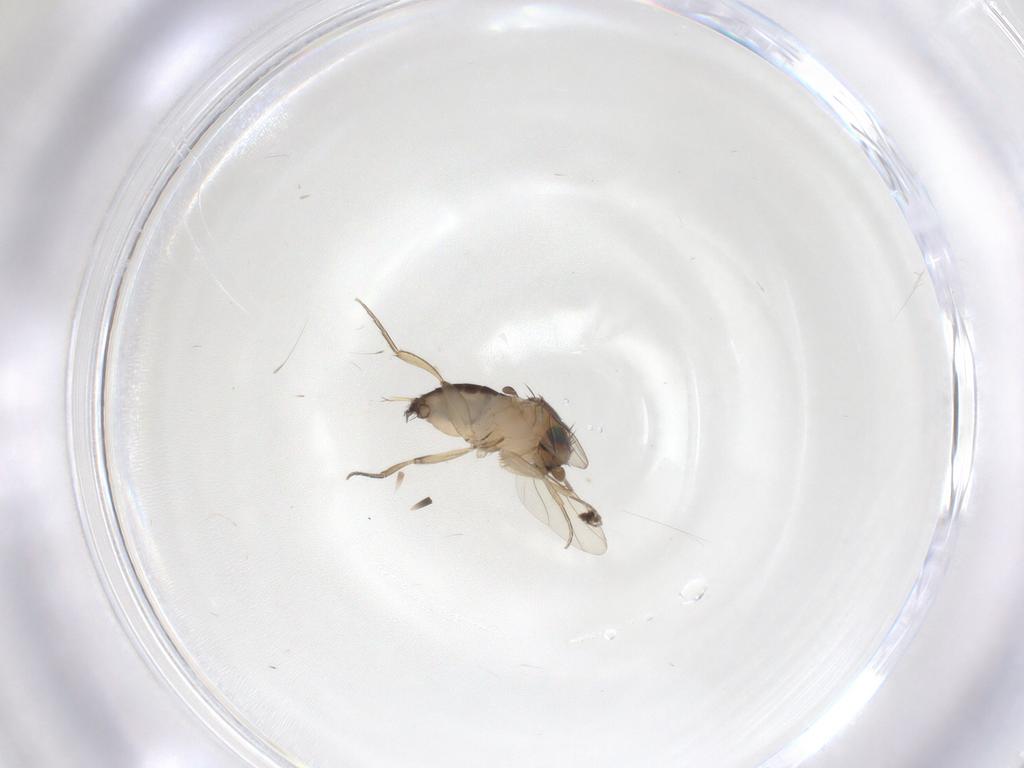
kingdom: Animalia
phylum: Arthropoda
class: Insecta
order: Diptera
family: Phoridae
